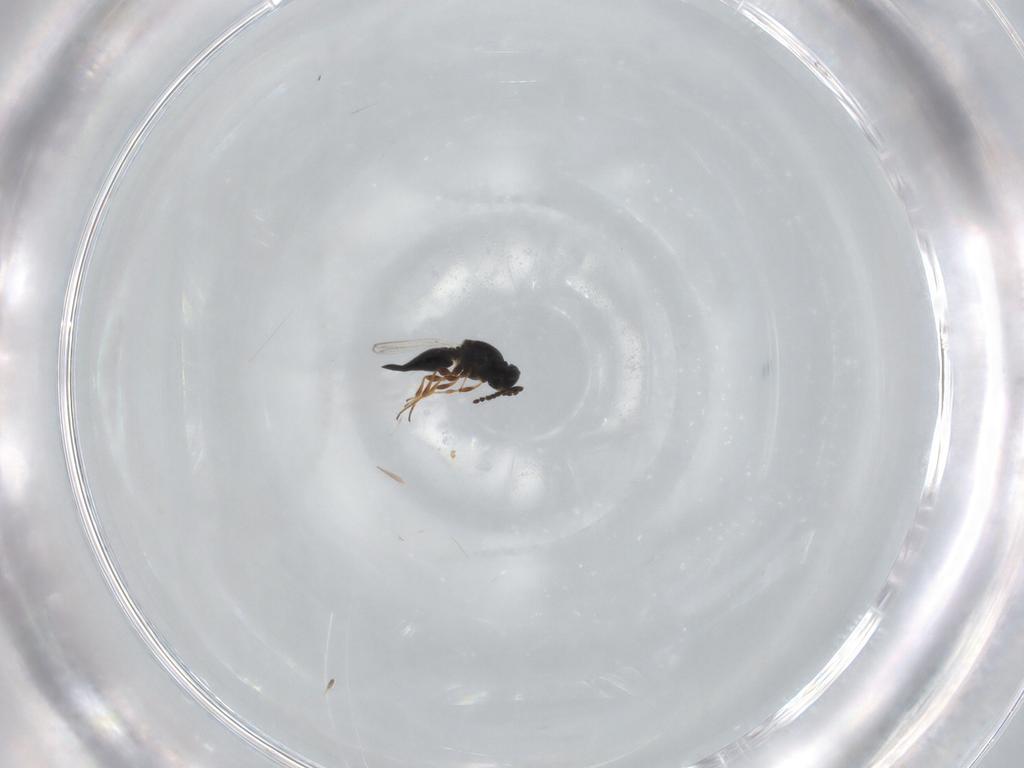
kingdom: Animalia
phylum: Arthropoda
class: Insecta
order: Hymenoptera
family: Platygastridae
